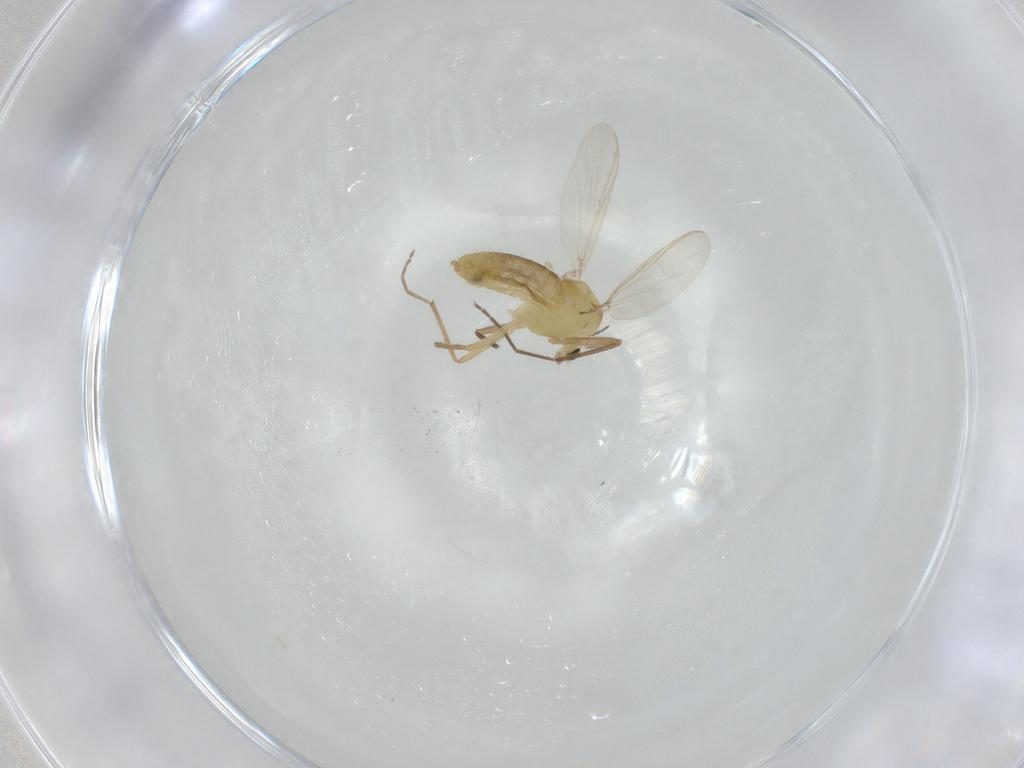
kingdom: Animalia
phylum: Arthropoda
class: Insecta
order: Diptera
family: Chironomidae
